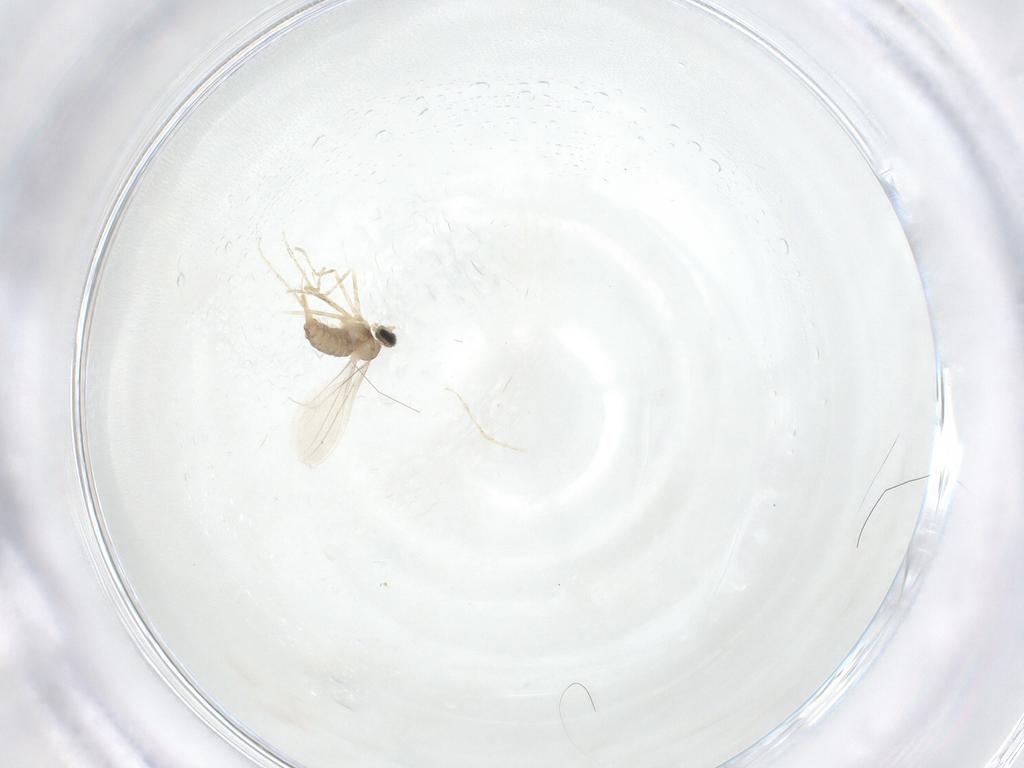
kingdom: Animalia
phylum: Arthropoda
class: Insecta
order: Diptera
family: Cecidomyiidae
